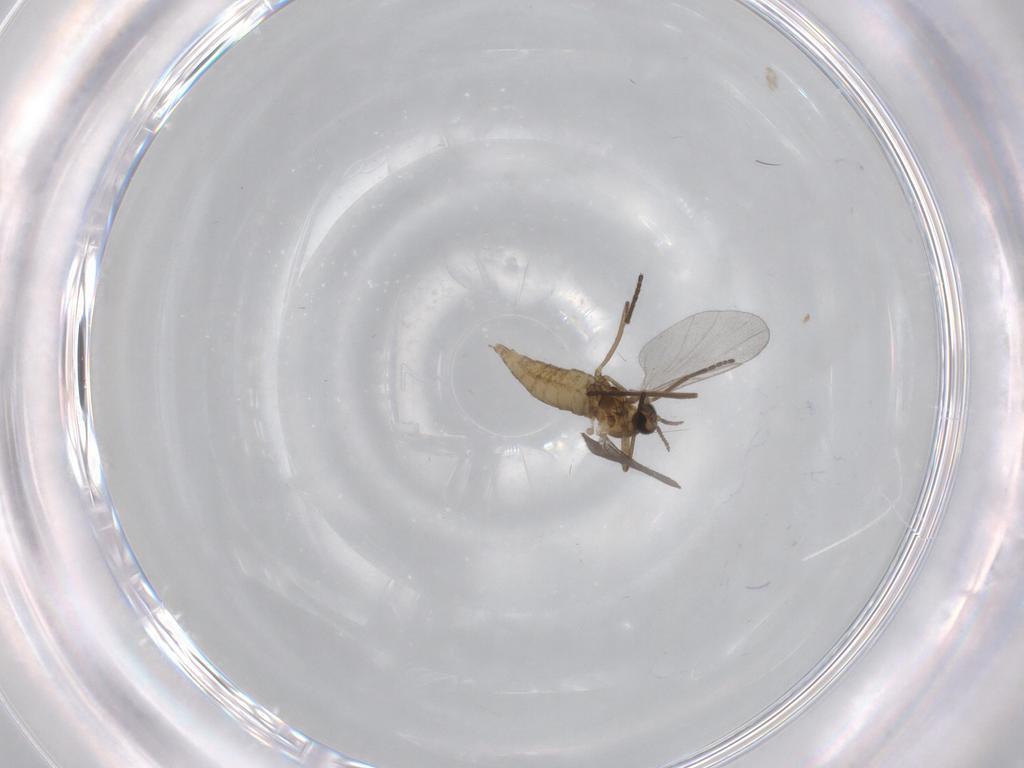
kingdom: Animalia
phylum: Arthropoda
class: Insecta
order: Diptera
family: Cecidomyiidae
